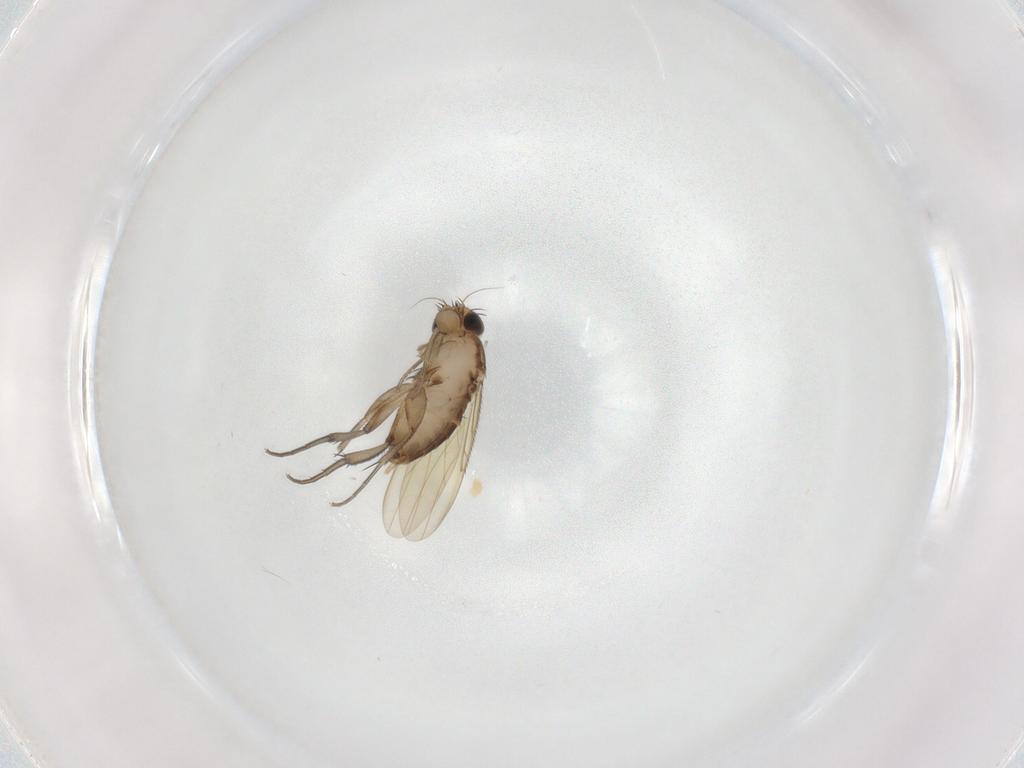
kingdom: Animalia
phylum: Arthropoda
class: Insecta
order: Diptera
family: Phoridae
